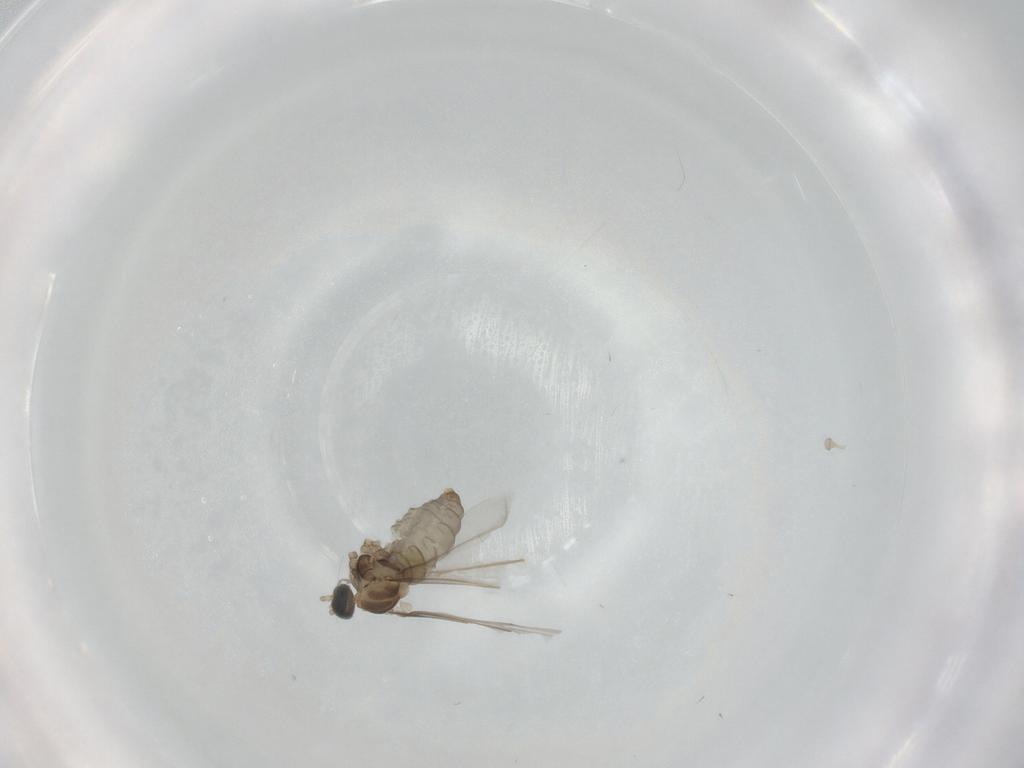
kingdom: Animalia
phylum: Arthropoda
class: Insecta
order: Diptera
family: Cecidomyiidae
